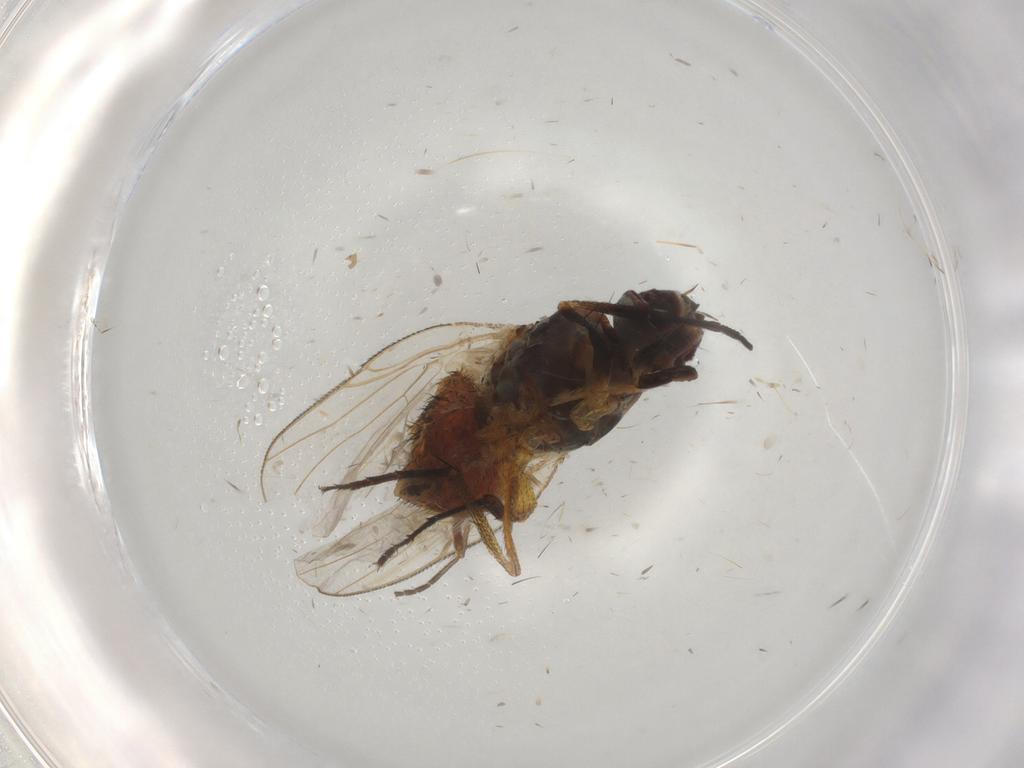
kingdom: Animalia
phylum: Arthropoda
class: Insecta
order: Diptera
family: Muscidae
